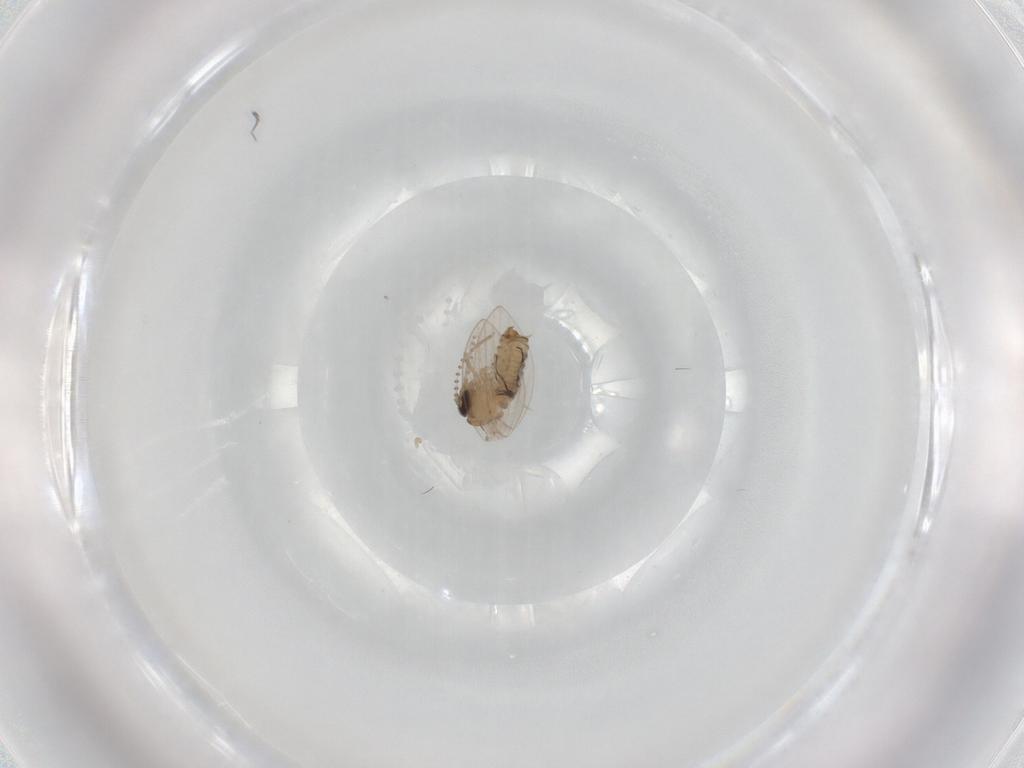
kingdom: Animalia
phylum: Arthropoda
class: Insecta
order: Diptera
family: Psychodidae
